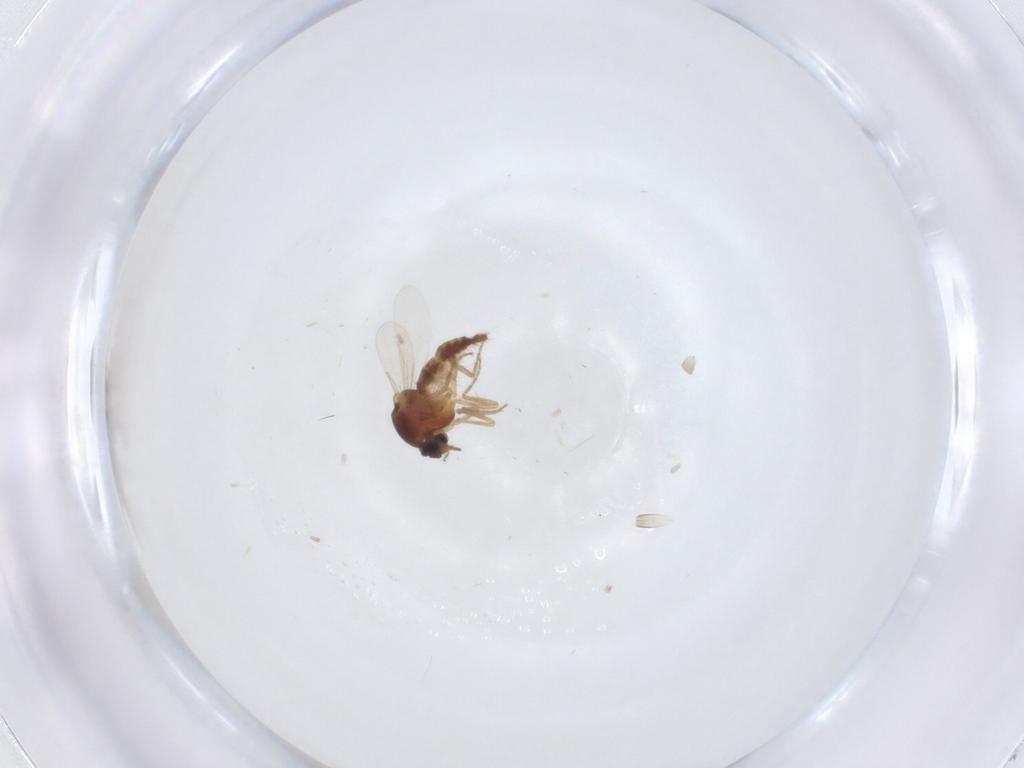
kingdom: Animalia
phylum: Arthropoda
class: Insecta
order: Diptera
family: Ceratopogonidae
